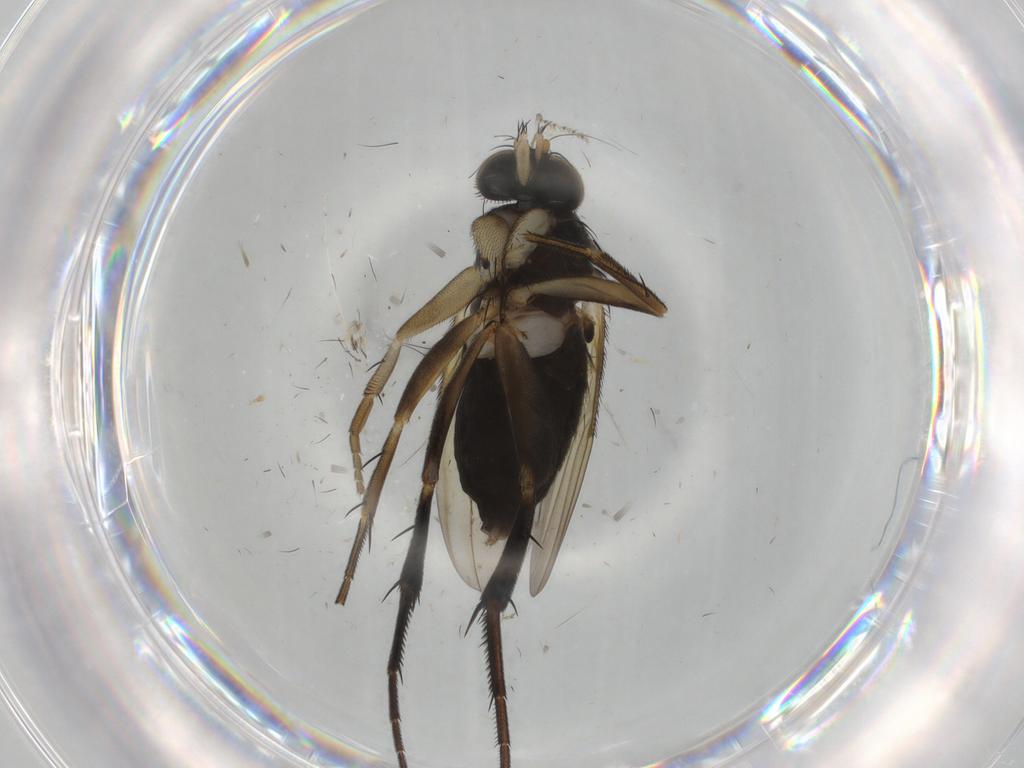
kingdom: Animalia
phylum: Arthropoda
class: Insecta
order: Diptera
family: Phoridae
